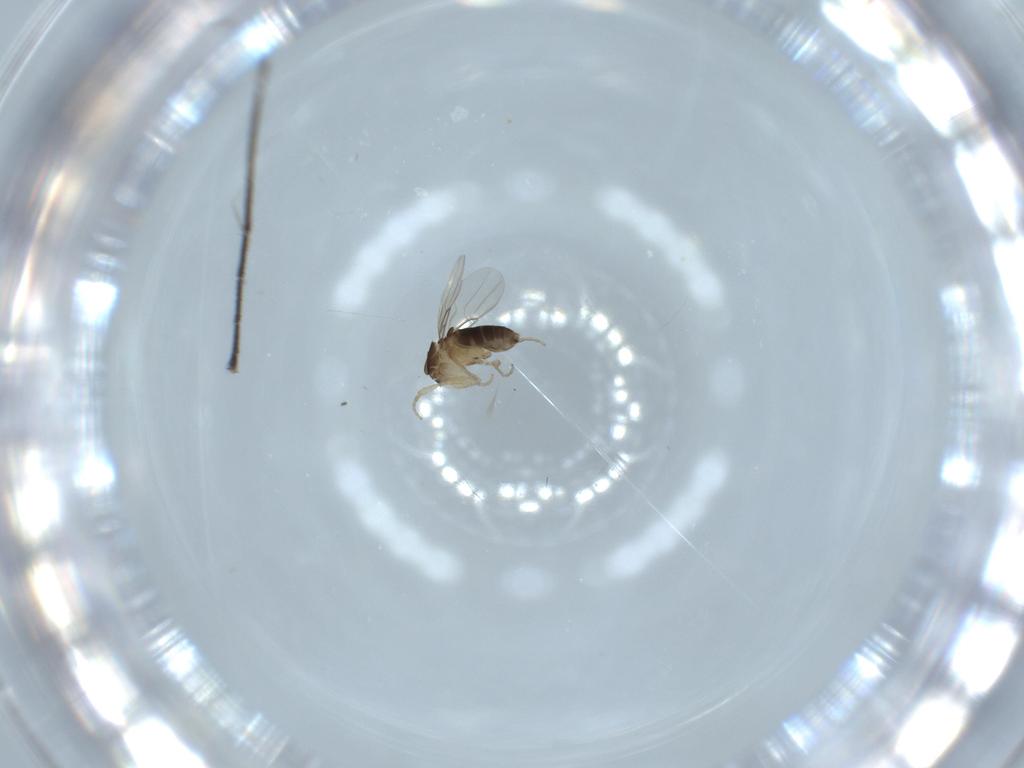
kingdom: Animalia
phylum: Arthropoda
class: Insecta
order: Diptera
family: Phoridae
